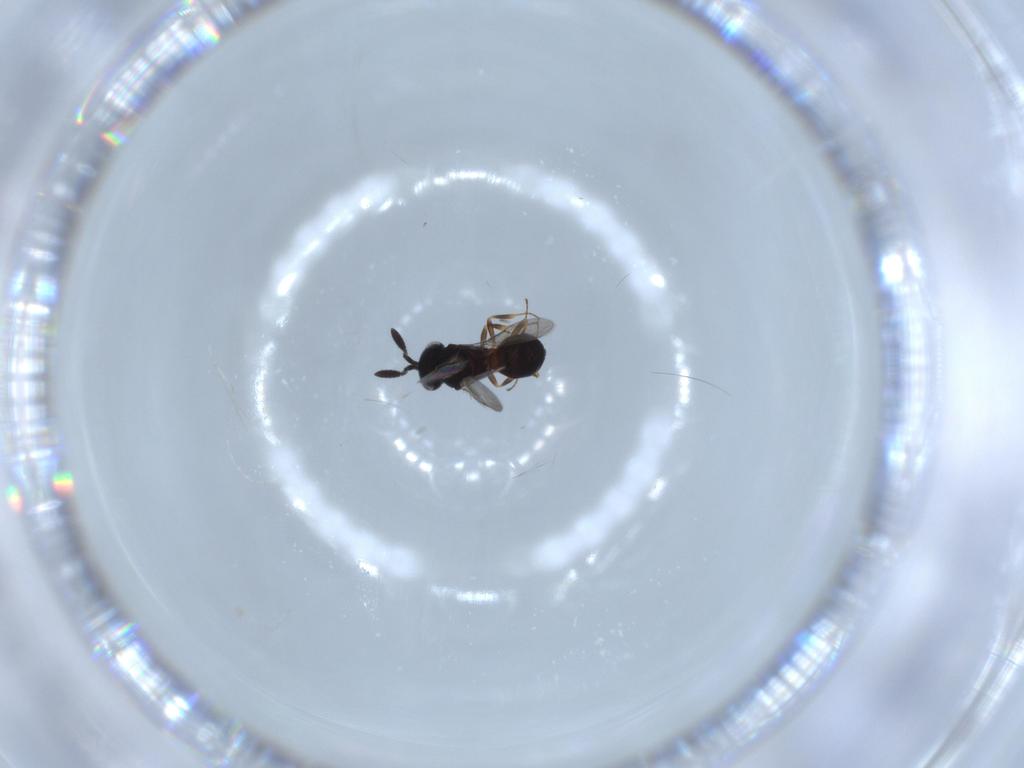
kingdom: Animalia
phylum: Arthropoda
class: Insecta
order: Hymenoptera
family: Scelionidae
